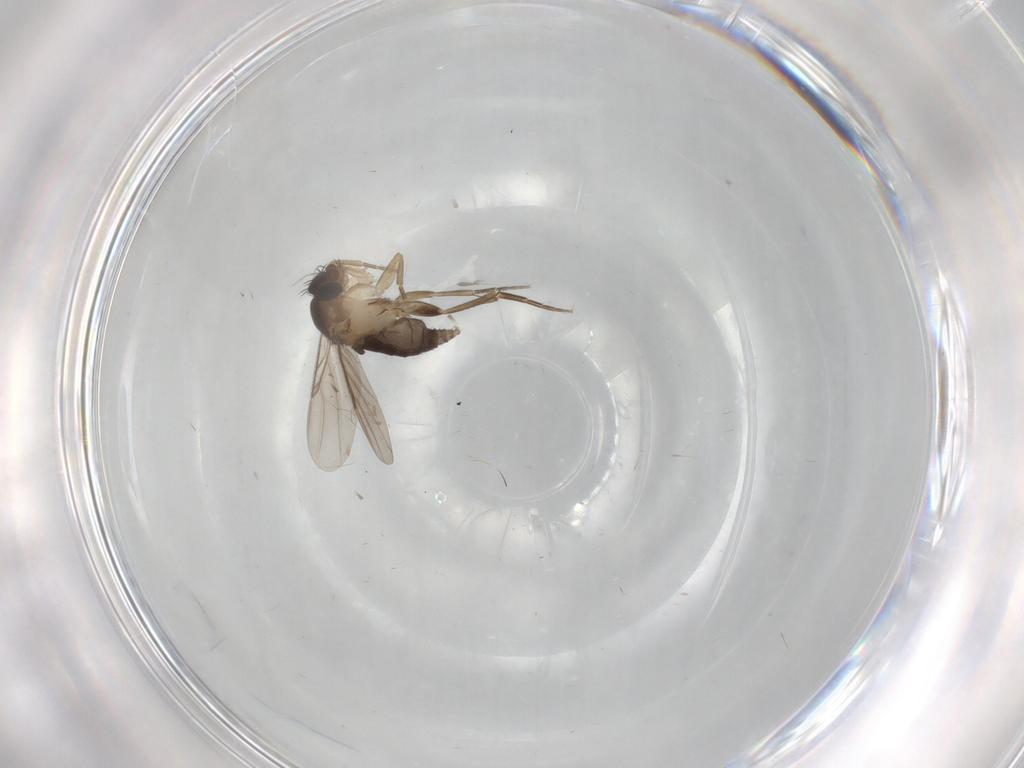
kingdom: Animalia
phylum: Arthropoda
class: Insecta
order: Diptera
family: Phoridae
